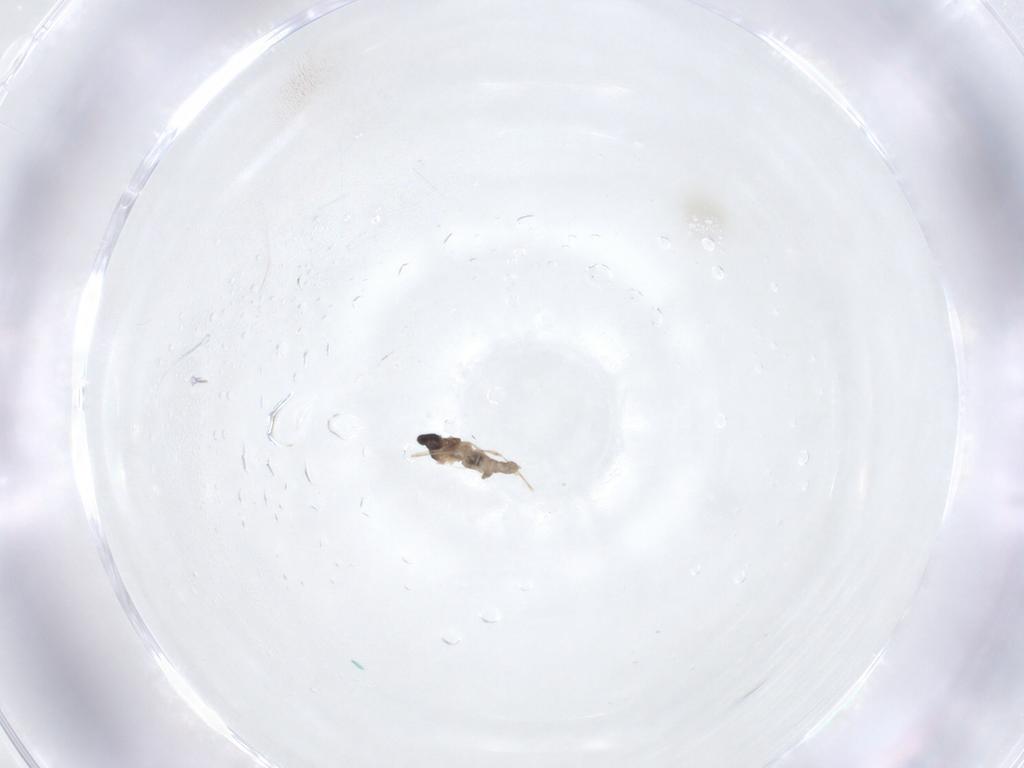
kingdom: Animalia
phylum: Arthropoda
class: Insecta
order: Diptera
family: Cecidomyiidae
